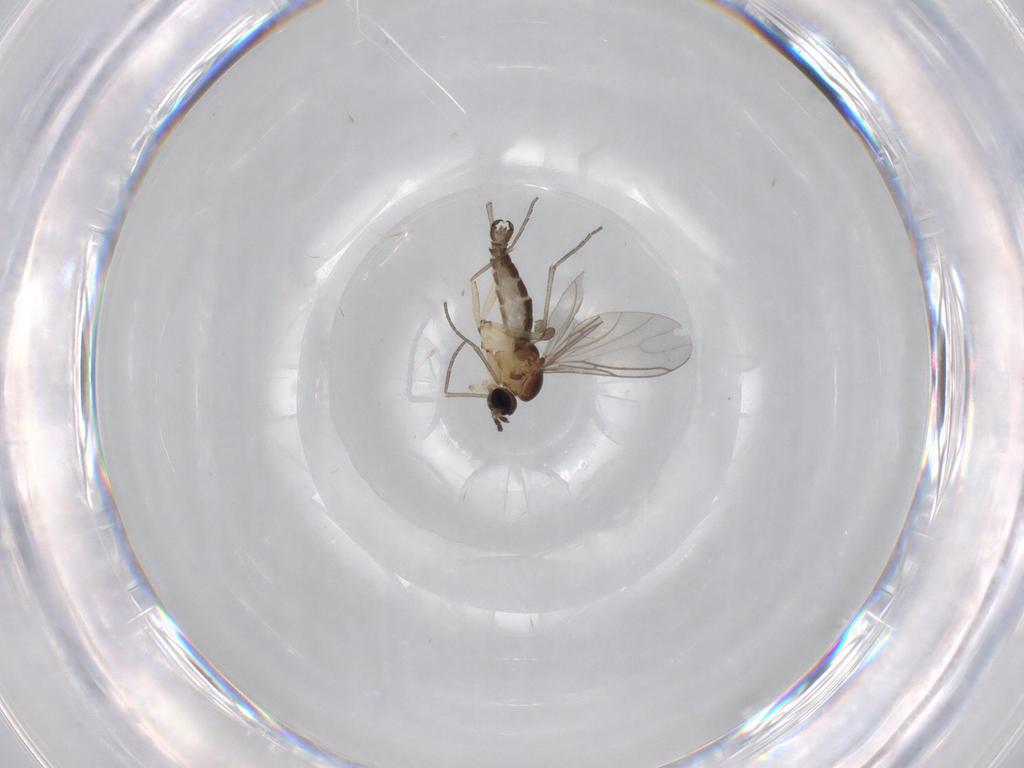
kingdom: Animalia
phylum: Arthropoda
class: Insecta
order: Diptera
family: Sciaridae
